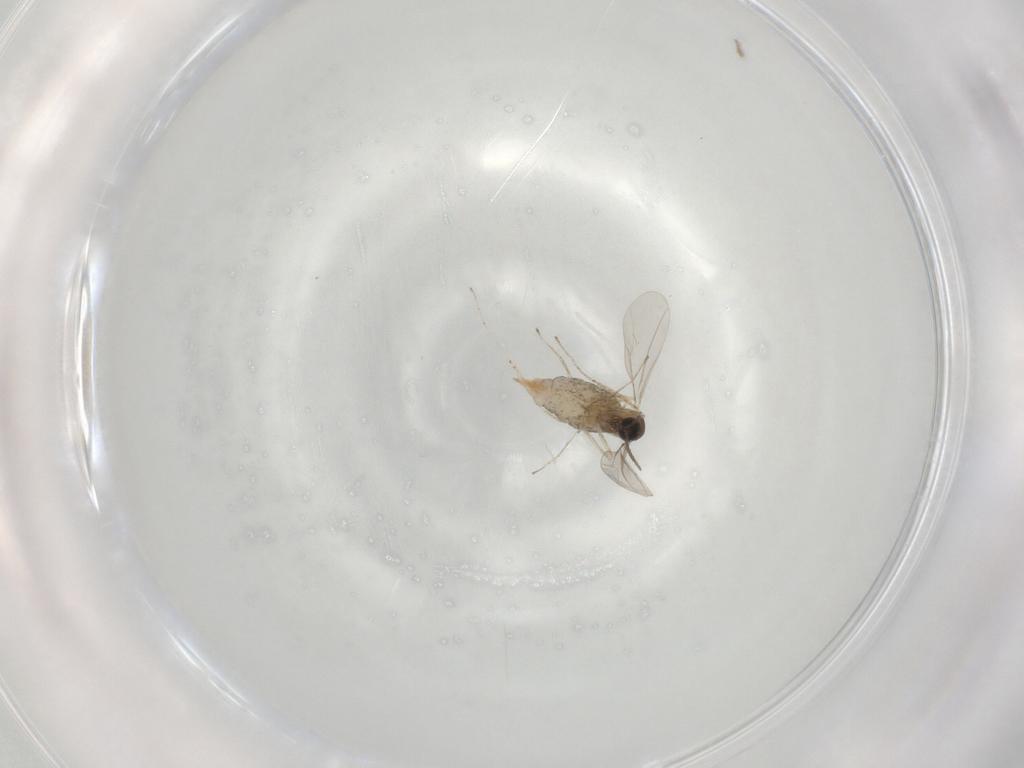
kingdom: Animalia
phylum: Arthropoda
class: Insecta
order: Diptera
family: Cecidomyiidae
